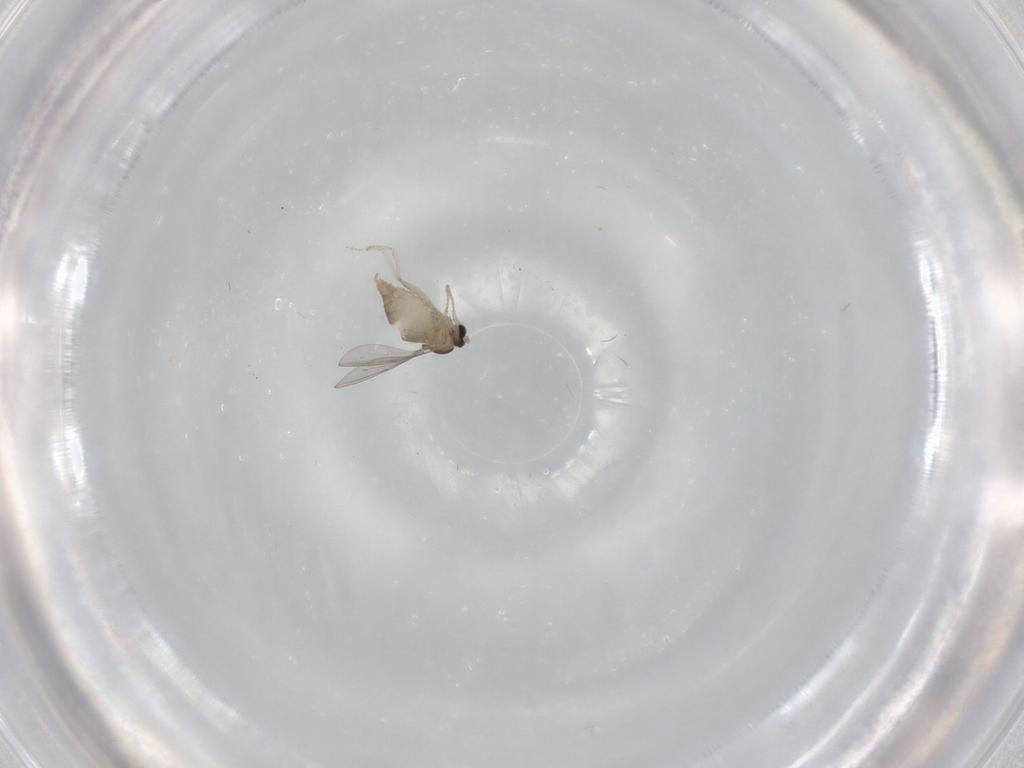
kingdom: Animalia
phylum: Arthropoda
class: Insecta
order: Diptera
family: Cecidomyiidae
